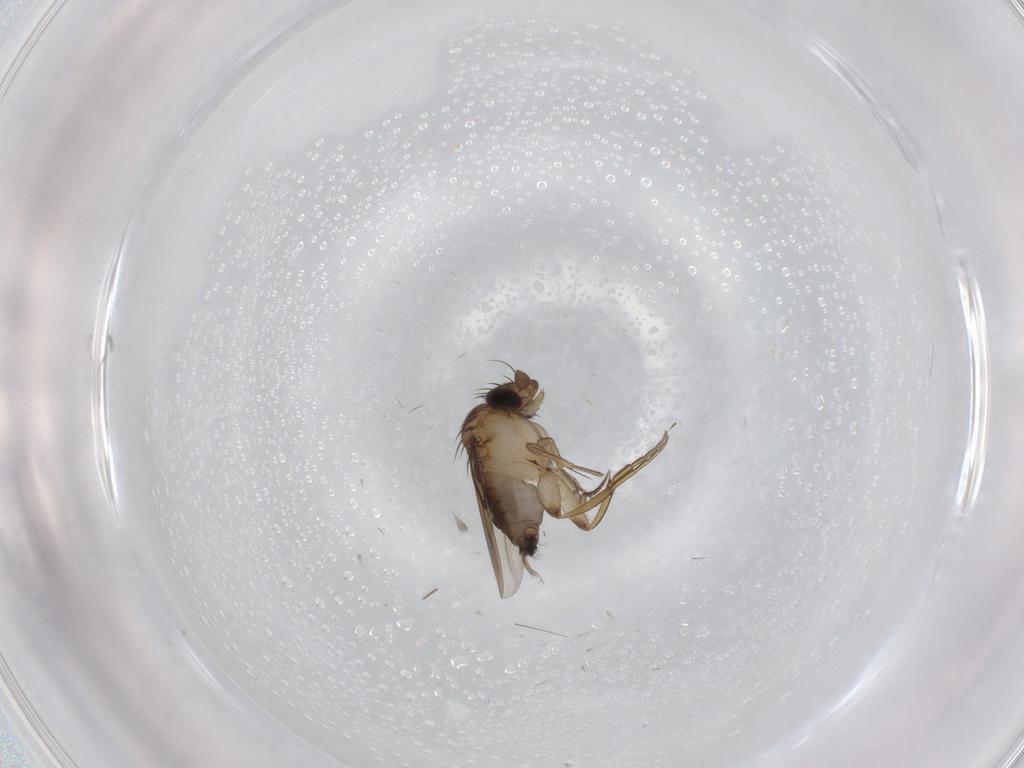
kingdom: Animalia
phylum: Arthropoda
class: Insecta
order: Diptera
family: Phoridae
